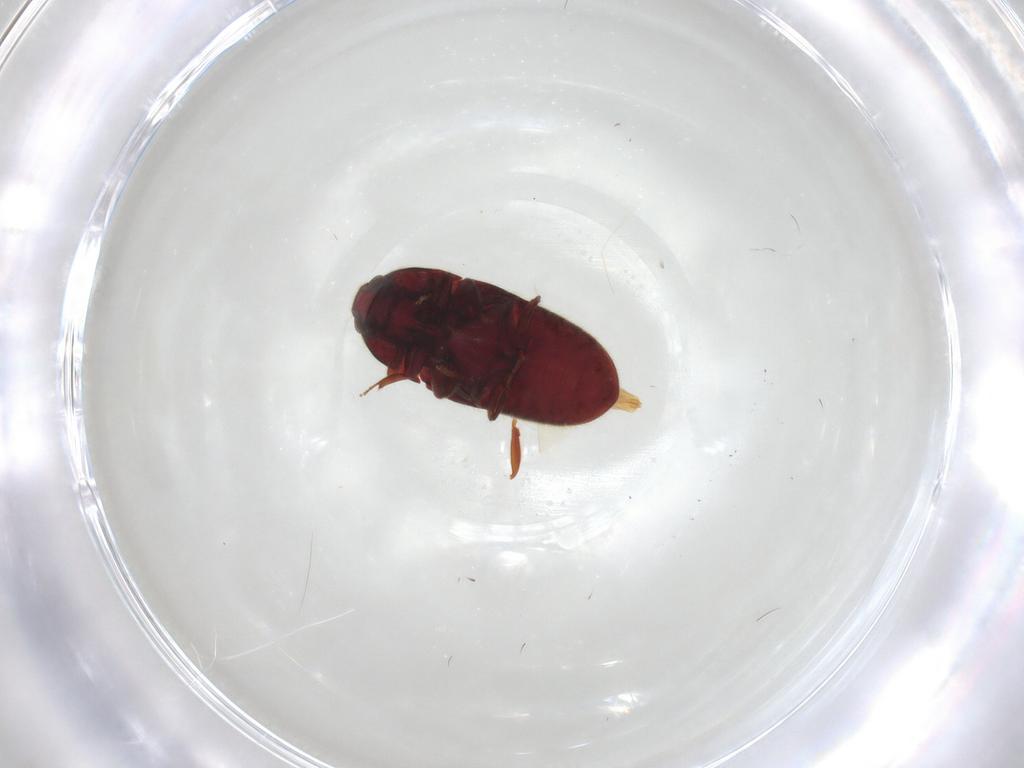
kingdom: Animalia
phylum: Arthropoda
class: Insecta
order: Coleoptera
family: Throscidae
